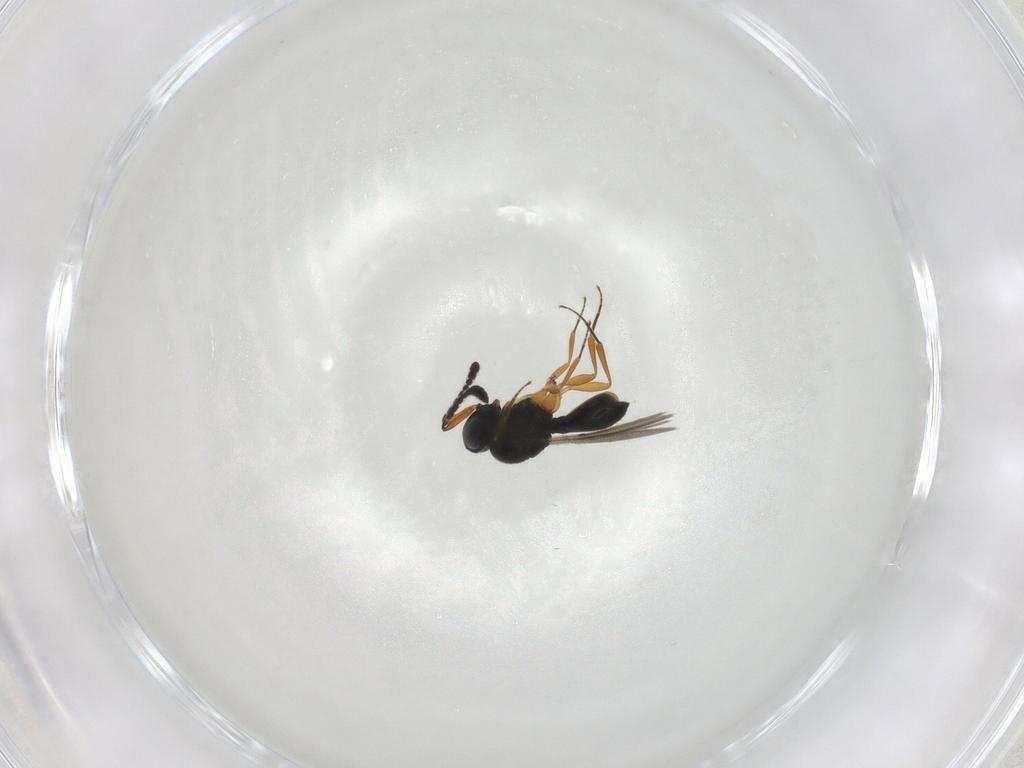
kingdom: Animalia
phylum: Arthropoda
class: Insecta
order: Hymenoptera
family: Scelionidae
